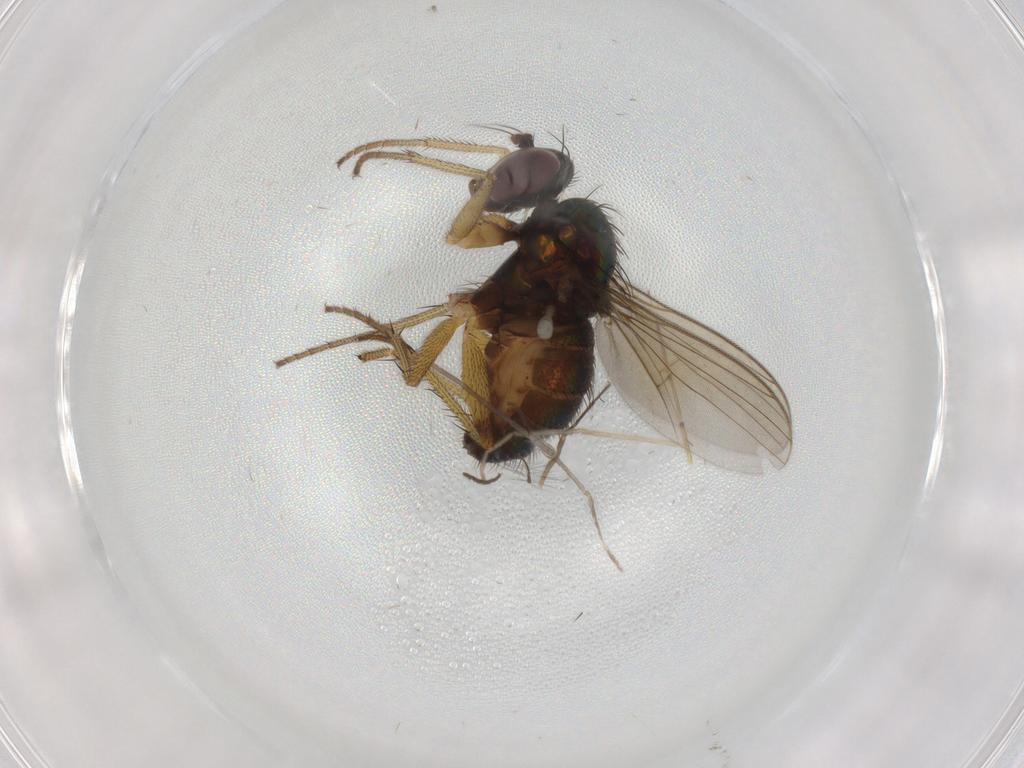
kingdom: Animalia
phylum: Arthropoda
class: Insecta
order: Diptera
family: Dolichopodidae
